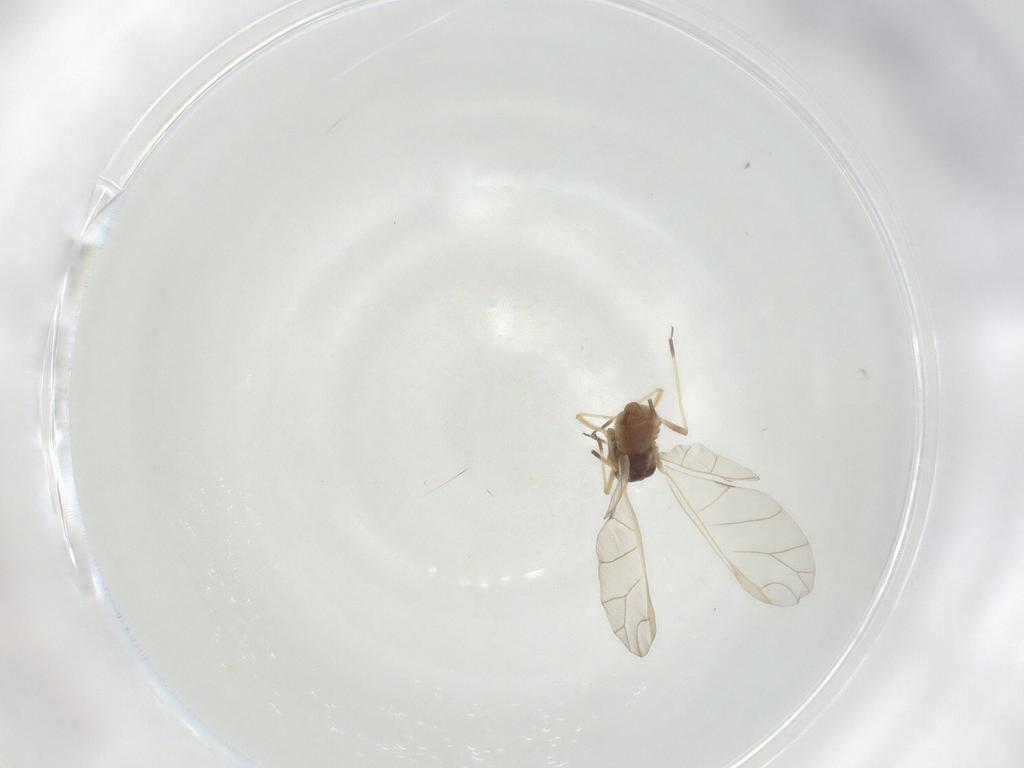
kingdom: Animalia
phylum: Arthropoda
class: Insecta
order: Hemiptera
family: Aphididae
